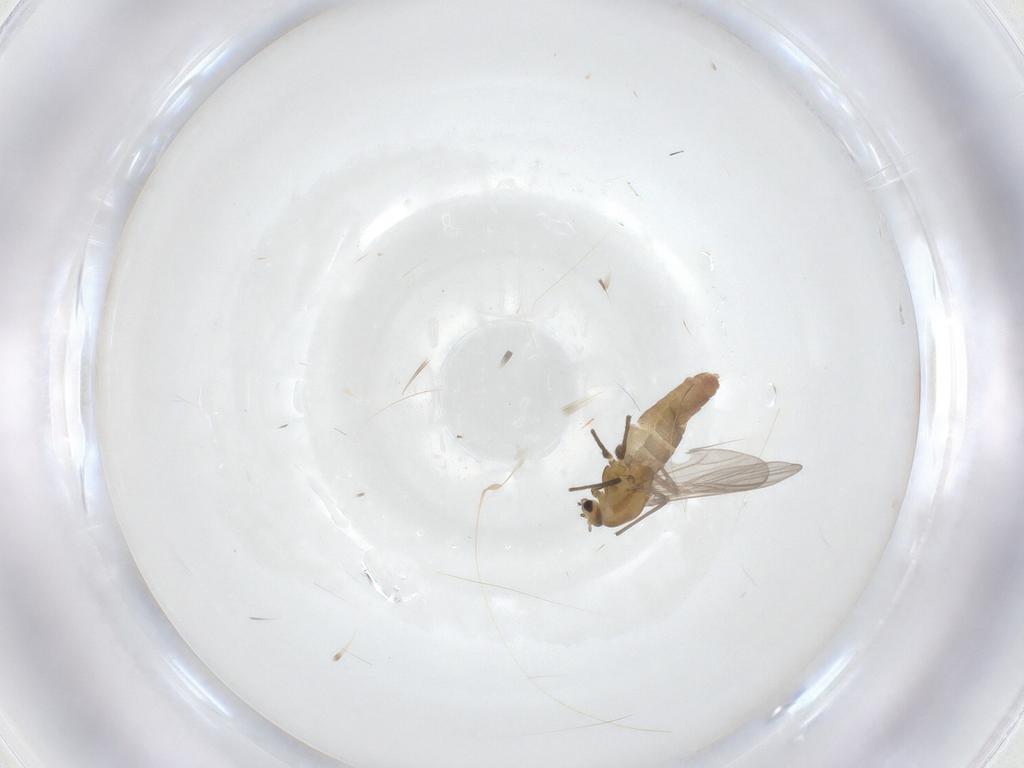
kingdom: Animalia
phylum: Arthropoda
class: Insecta
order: Diptera
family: Chironomidae
